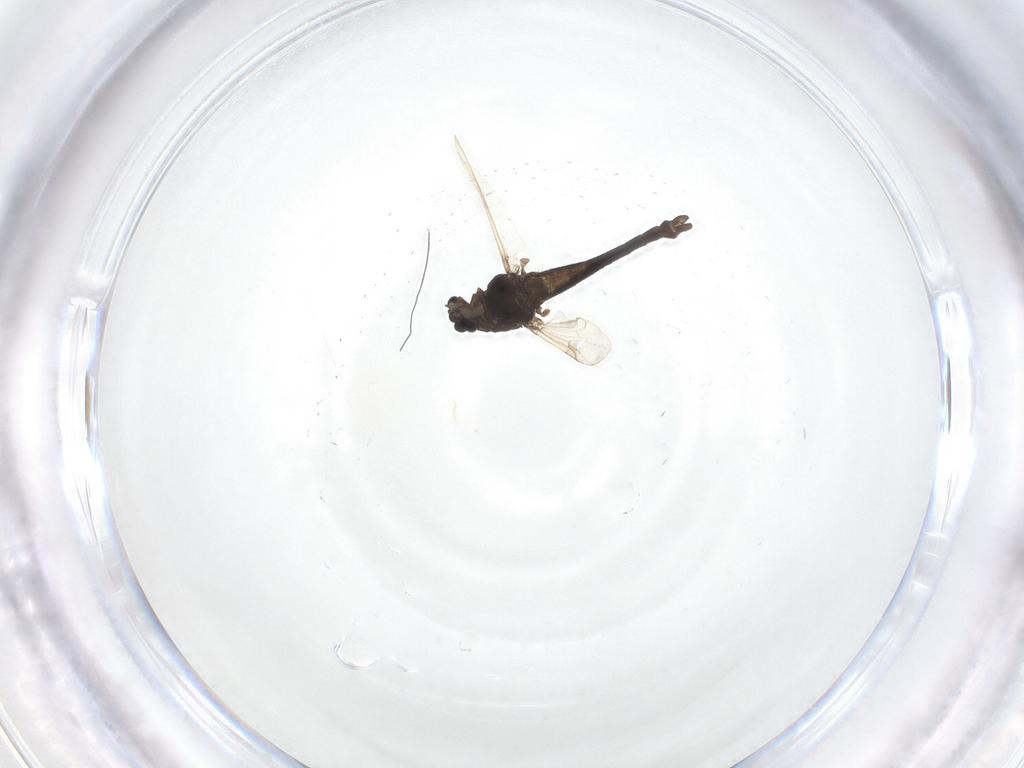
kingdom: Animalia
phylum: Arthropoda
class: Insecta
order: Diptera
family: Chironomidae
